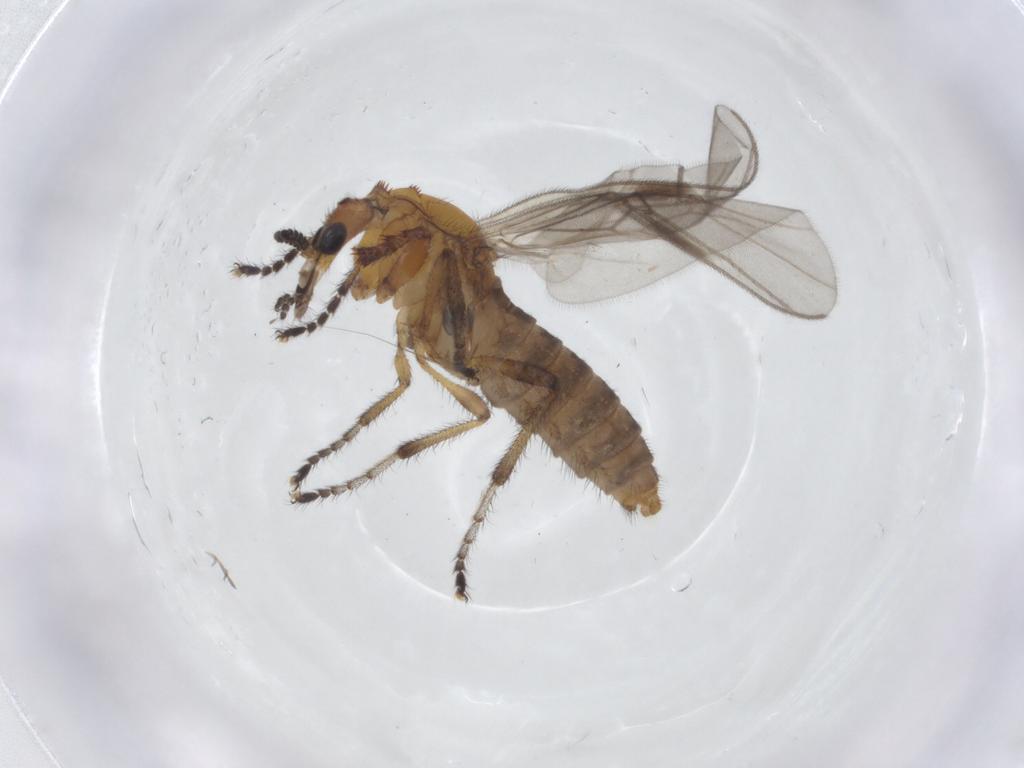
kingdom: Animalia
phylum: Arthropoda
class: Insecta
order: Diptera
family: Bibionidae
